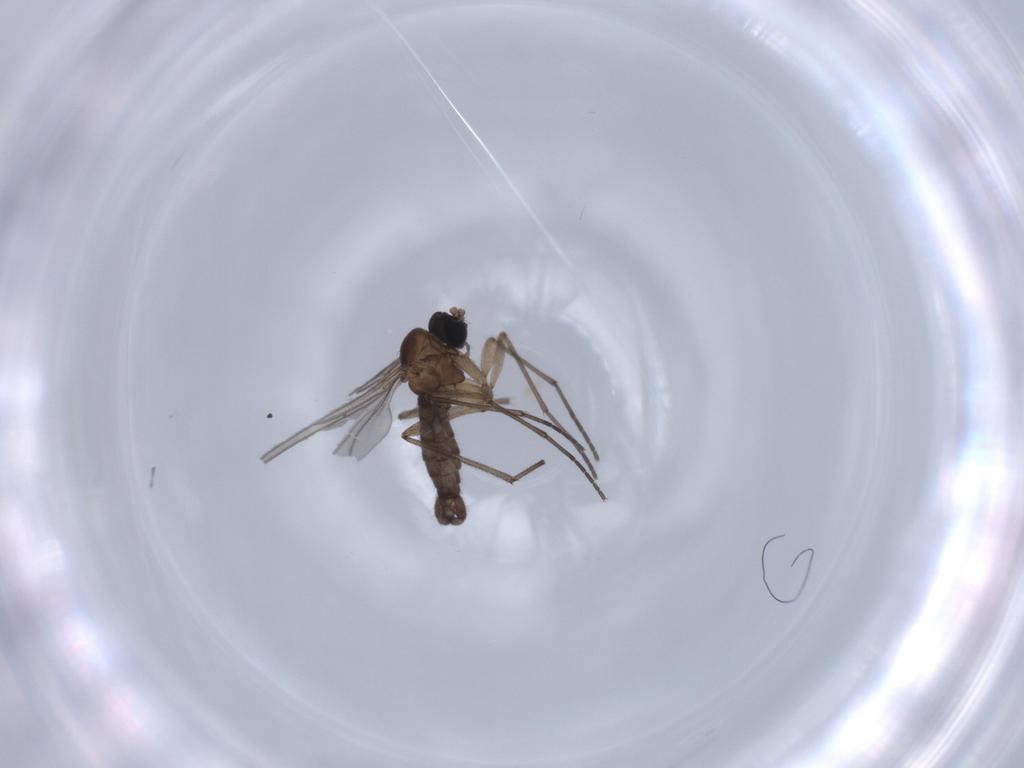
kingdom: Animalia
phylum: Arthropoda
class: Insecta
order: Diptera
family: Sciaridae
